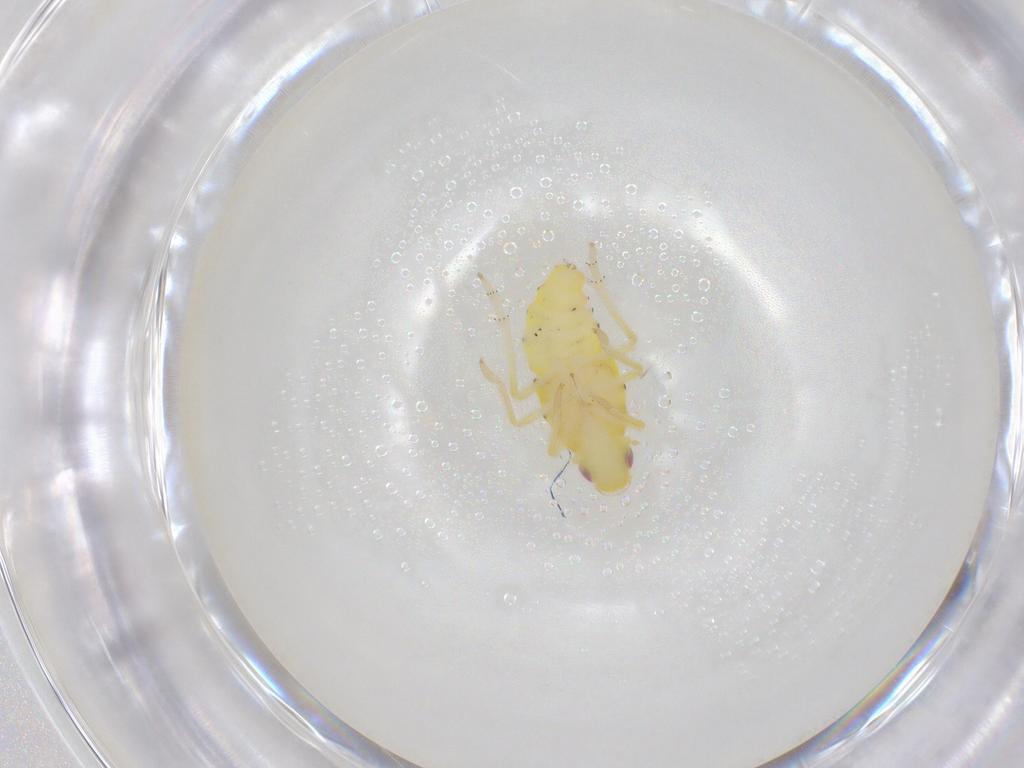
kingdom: Animalia
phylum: Arthropoda
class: Insecta
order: Hemiptera
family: Tropiduchidae
